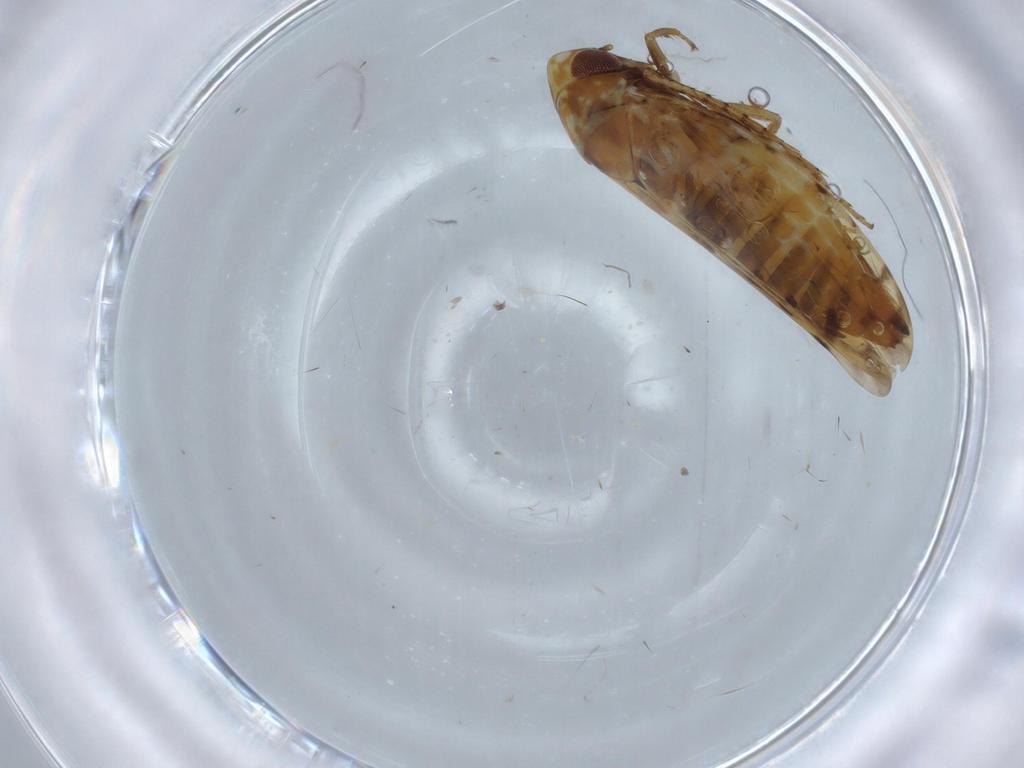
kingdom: Animalia
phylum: Arthropoda
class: Insecta
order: Hemiptera
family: Cicadellidae
